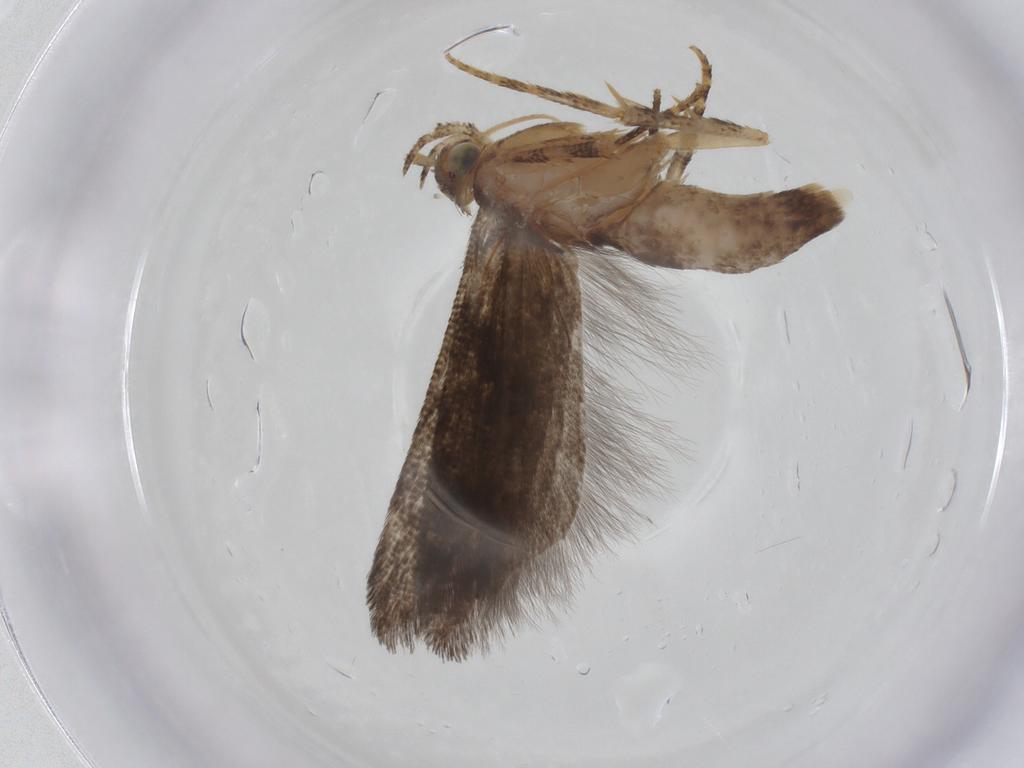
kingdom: Animalia
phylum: Arthropoda
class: Insecta
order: Lepidoptera
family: Gelechiidae
